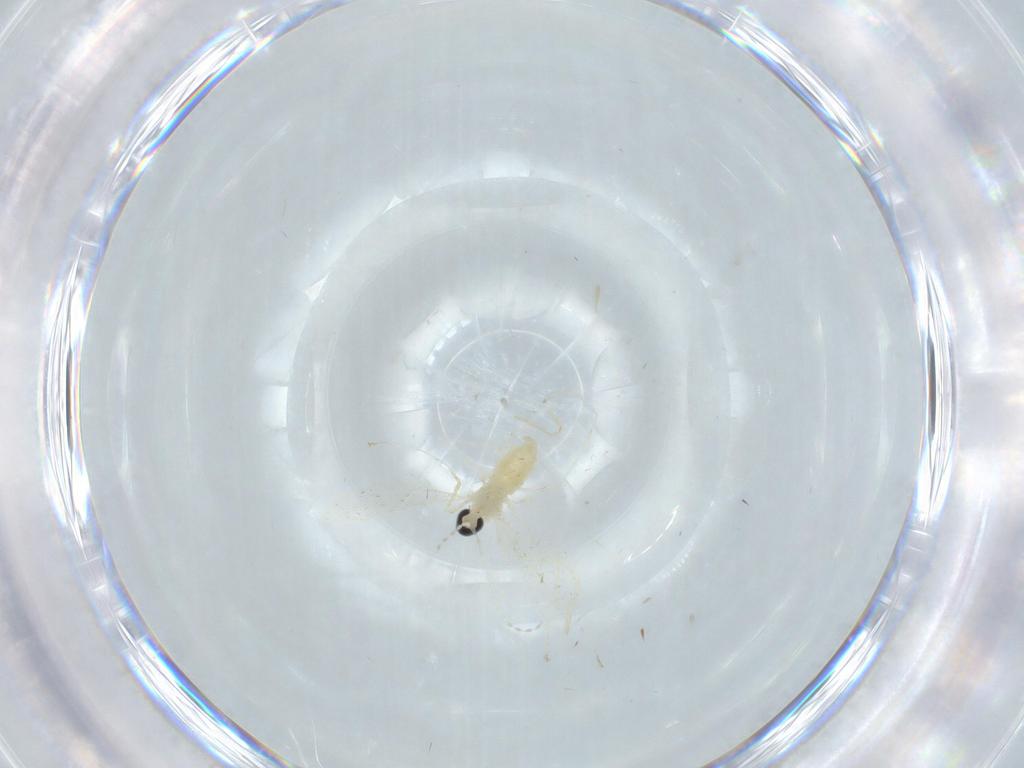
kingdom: Animalia
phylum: Arthropoda
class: Insecta
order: Diptera
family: Cecidomyiidae
